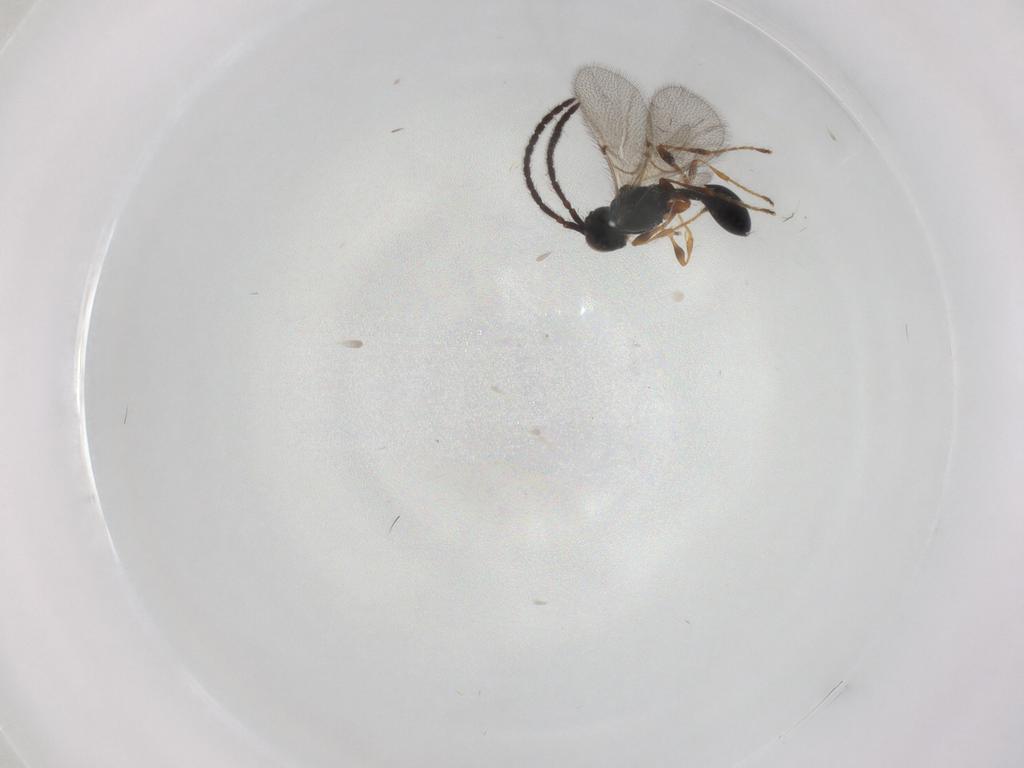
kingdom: Animalia
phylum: Arthropoda
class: Insecta
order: Hymenoptera
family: Diapriidae
